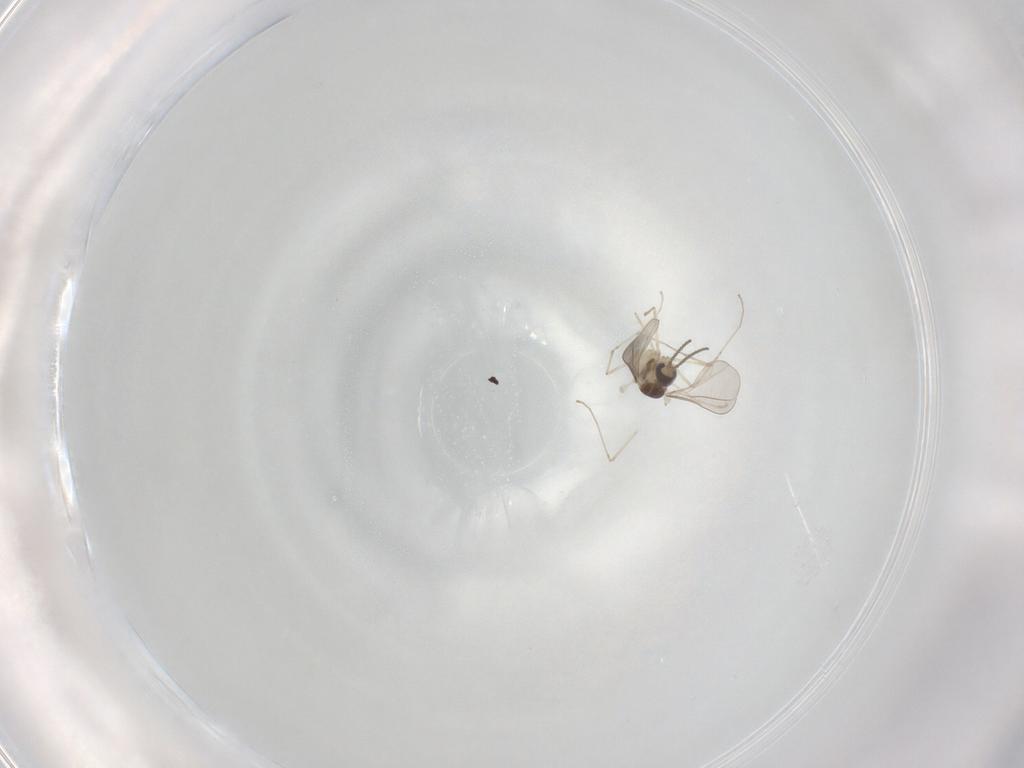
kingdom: Animalia
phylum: Arthropoda
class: Insecta
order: Diptera
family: Cecidomyiidae
